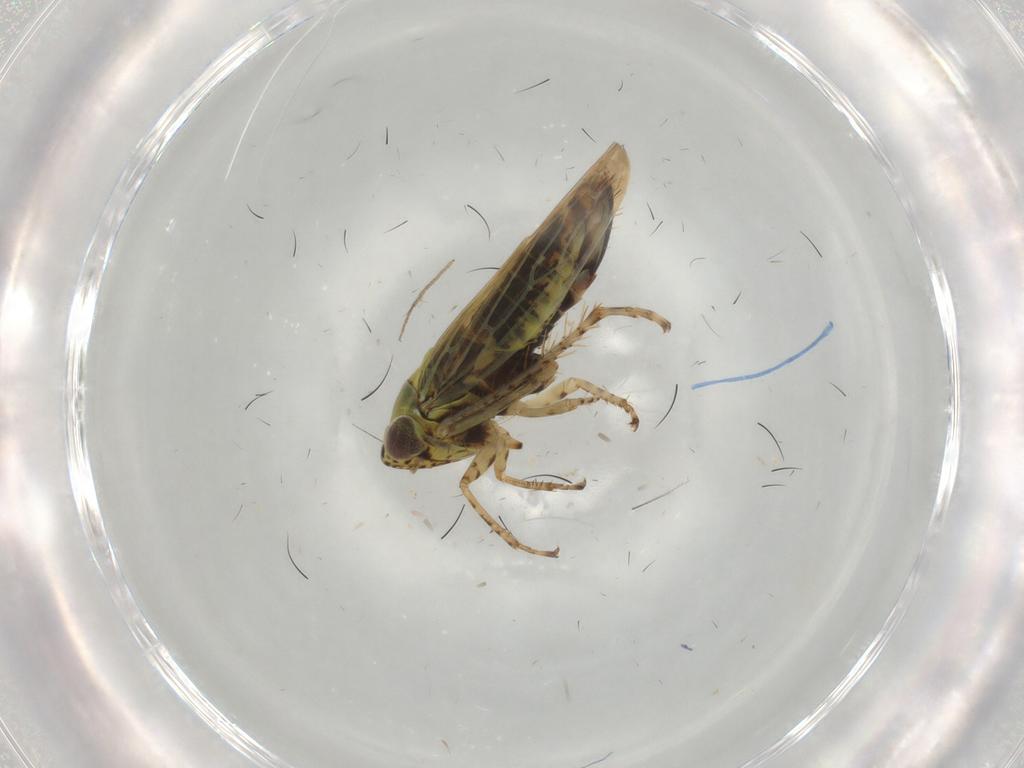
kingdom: Animalia
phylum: Arthropoda
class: Insecta
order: Hemiptera
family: Cicadellidae
